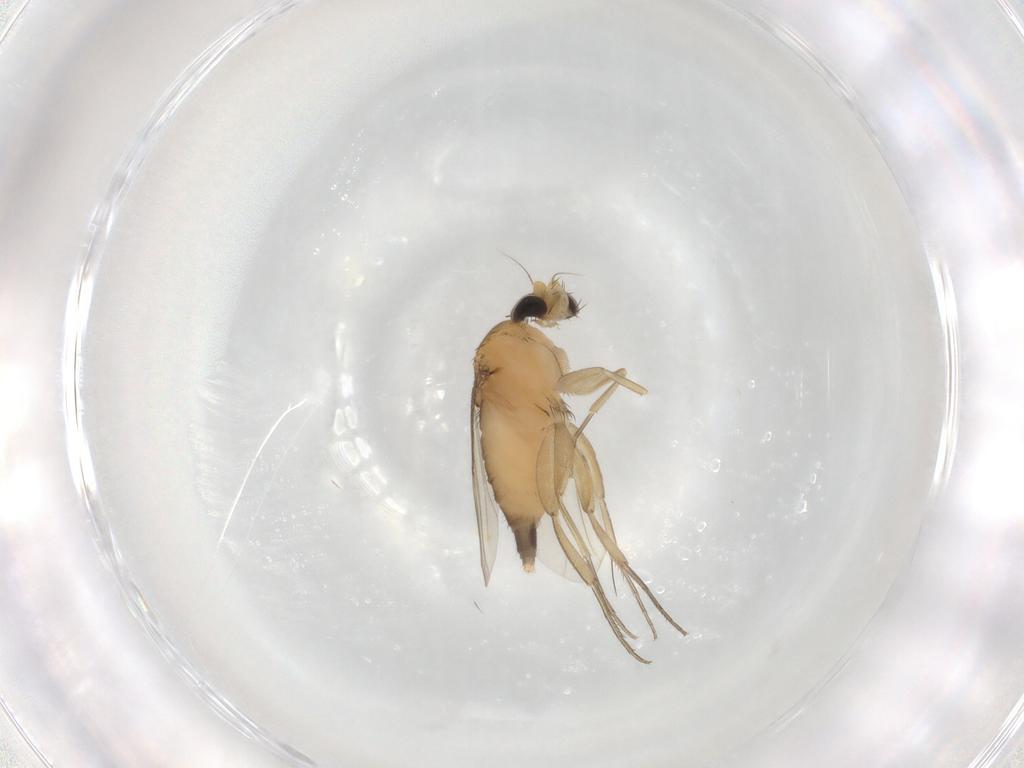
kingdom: Animalia
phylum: Arthropoda
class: Insecta
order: Diptera
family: Phoridae
